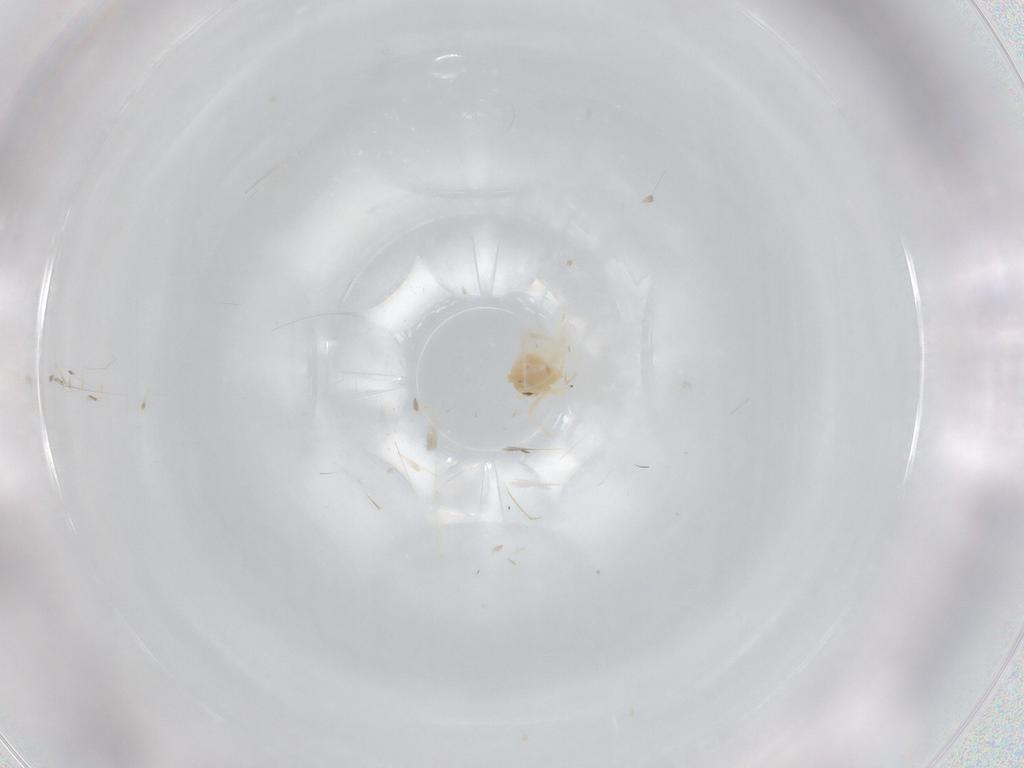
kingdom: Animalia
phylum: Arthropoda
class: Insecta
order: Hemiptera
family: Aleyrodidae
